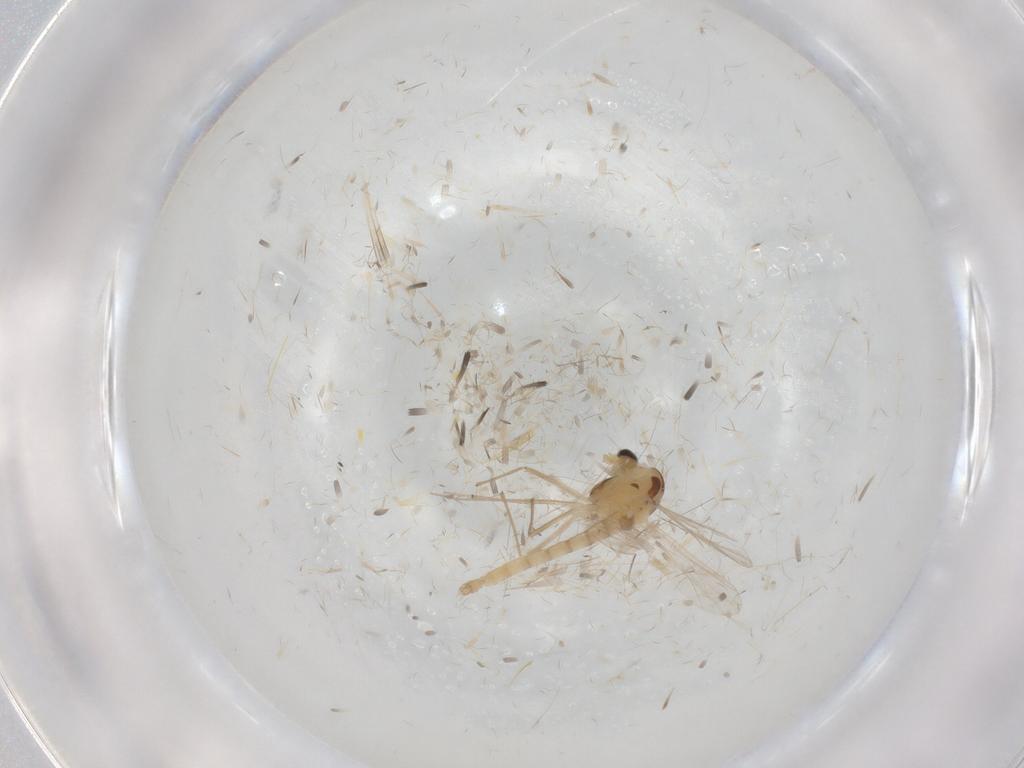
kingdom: Animalia
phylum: Arthropoda
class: Insecta
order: Diptera
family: Chironomidae
